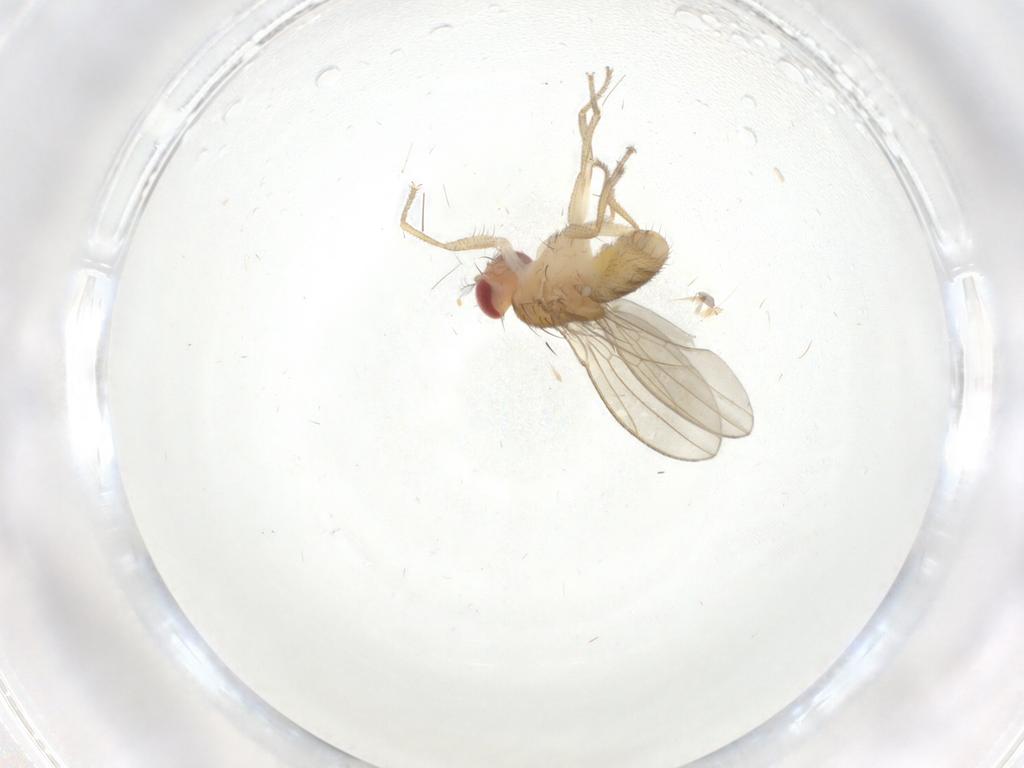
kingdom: Animalia
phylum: Arthropoda
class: Insecta
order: Diptera
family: Drosophilidae
